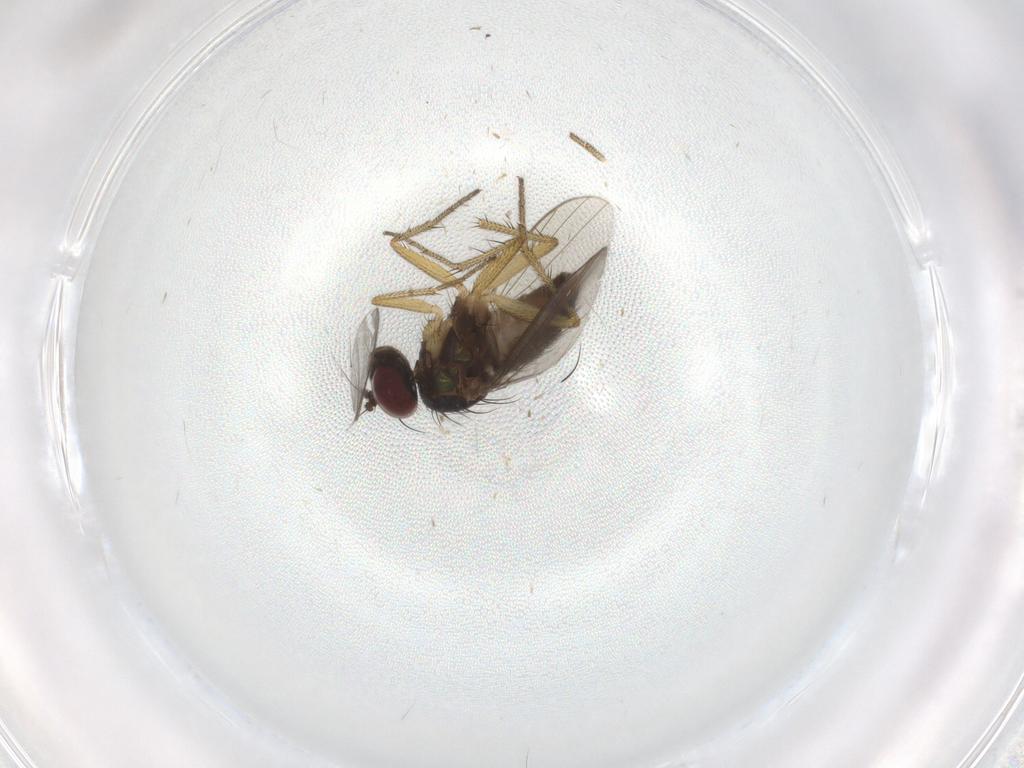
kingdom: Animalia
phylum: Arthropoda
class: Insecta
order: Diptera
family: Sciaridae
